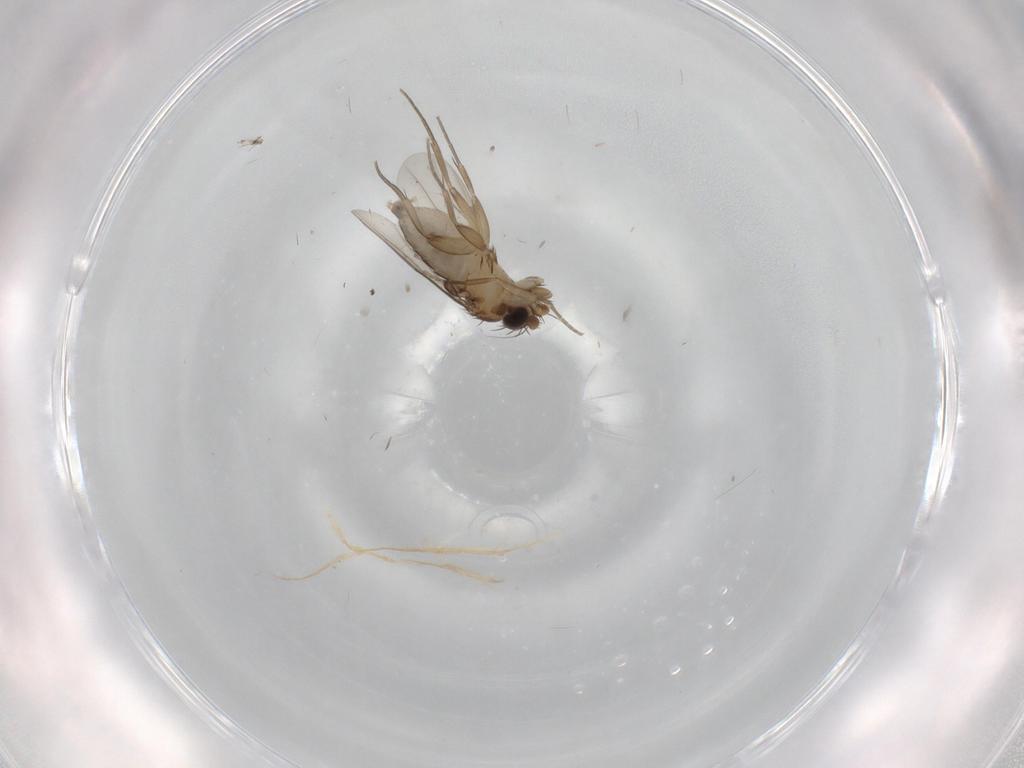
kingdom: Animalia
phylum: Arthropoda
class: Insecta
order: Diptera
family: Phoridae
